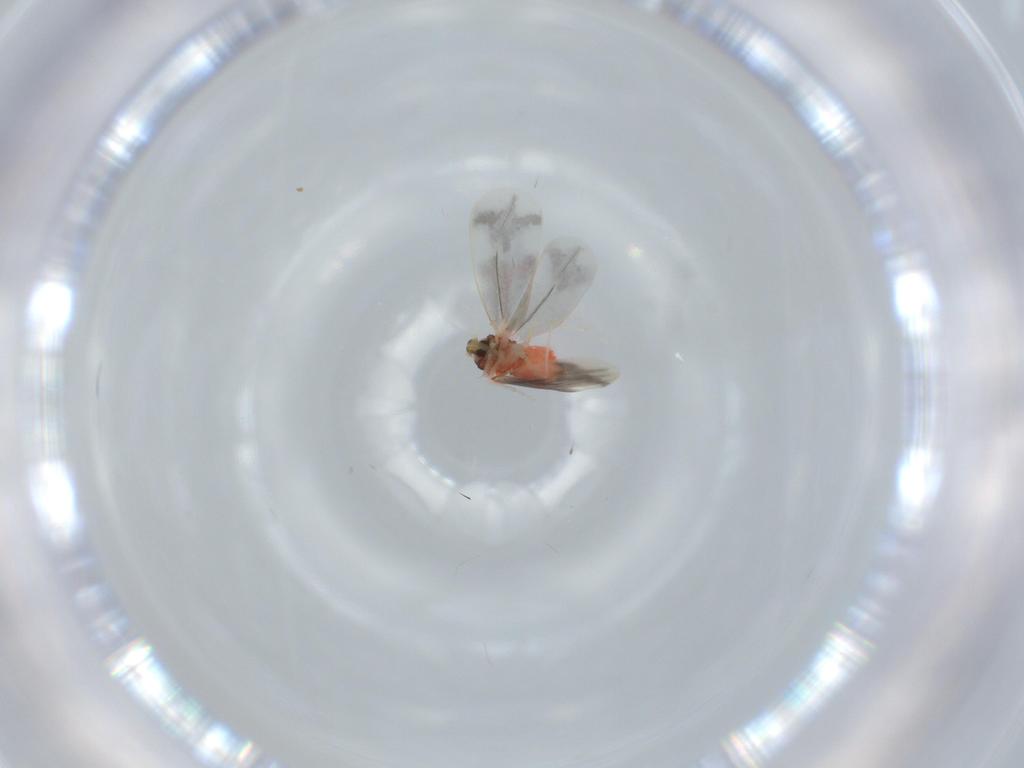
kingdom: Animalia
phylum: Arthropoda
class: Insecta
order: Hemiptera
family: Aleyrodidae
